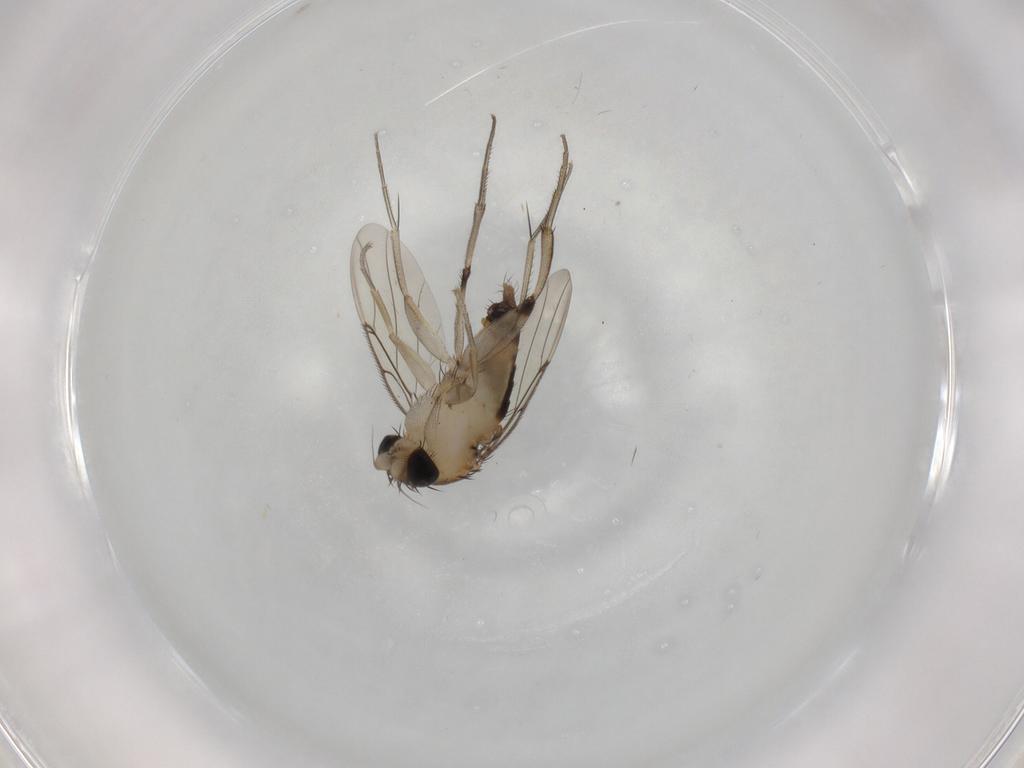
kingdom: Animalia
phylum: Arthropoda
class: Insecta
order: Diptera
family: Phoridae
